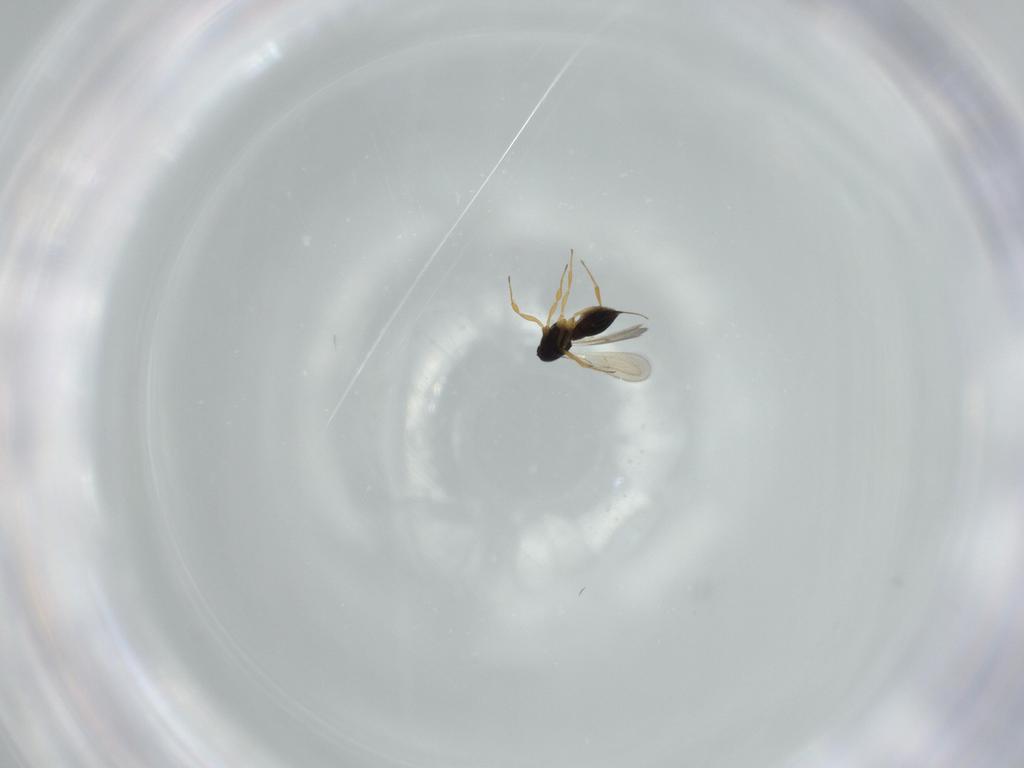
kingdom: Animalia
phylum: Arthropoda
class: Insecta
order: Hymenoptera
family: Scelionidae
